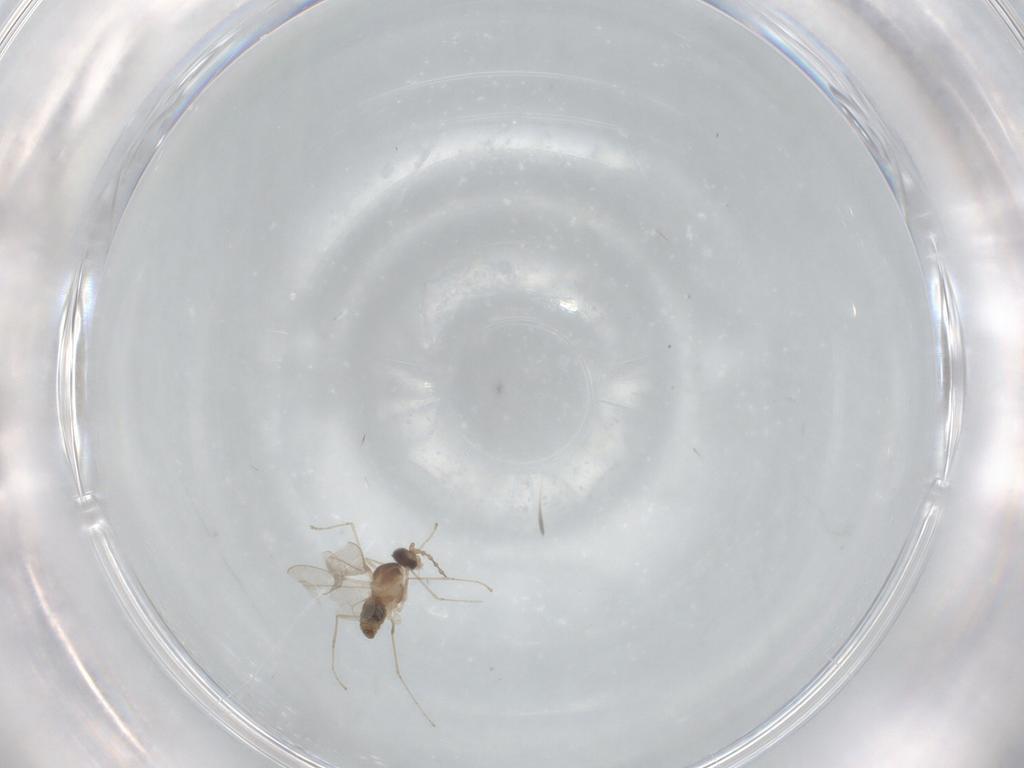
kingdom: Animalia
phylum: Arthropoda
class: Insecta
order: Diptera
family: Cecidomyiidae
